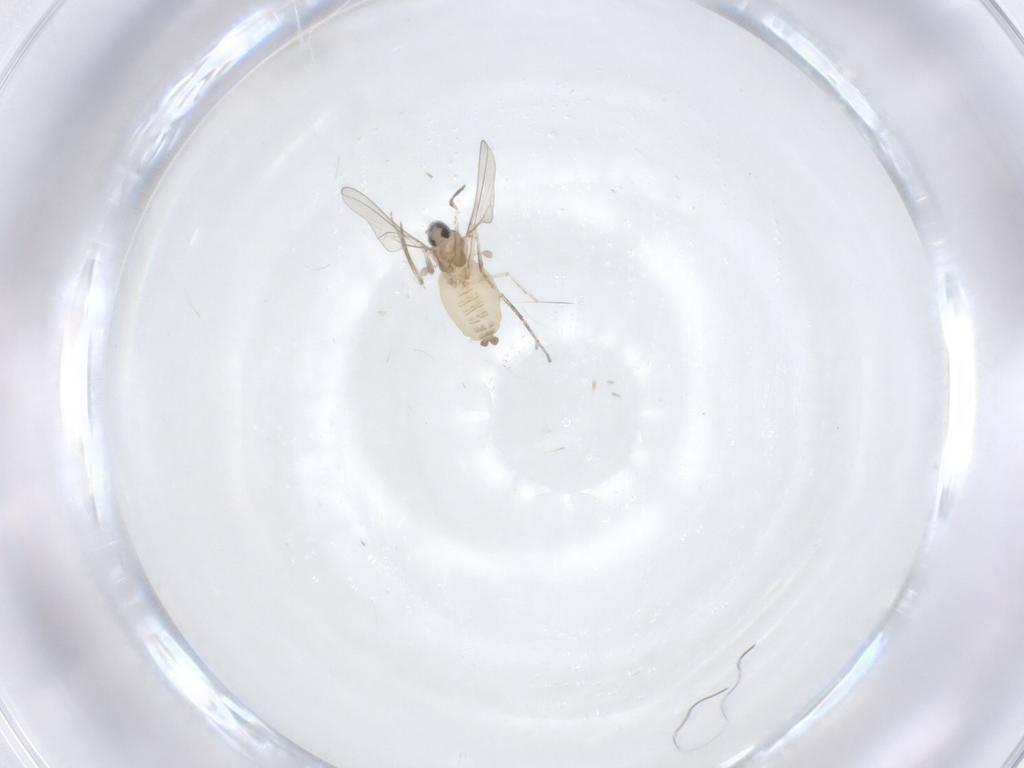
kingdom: Animalia
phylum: Arthropoda
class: Insecta
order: Diptera
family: Cecidomyiidae
